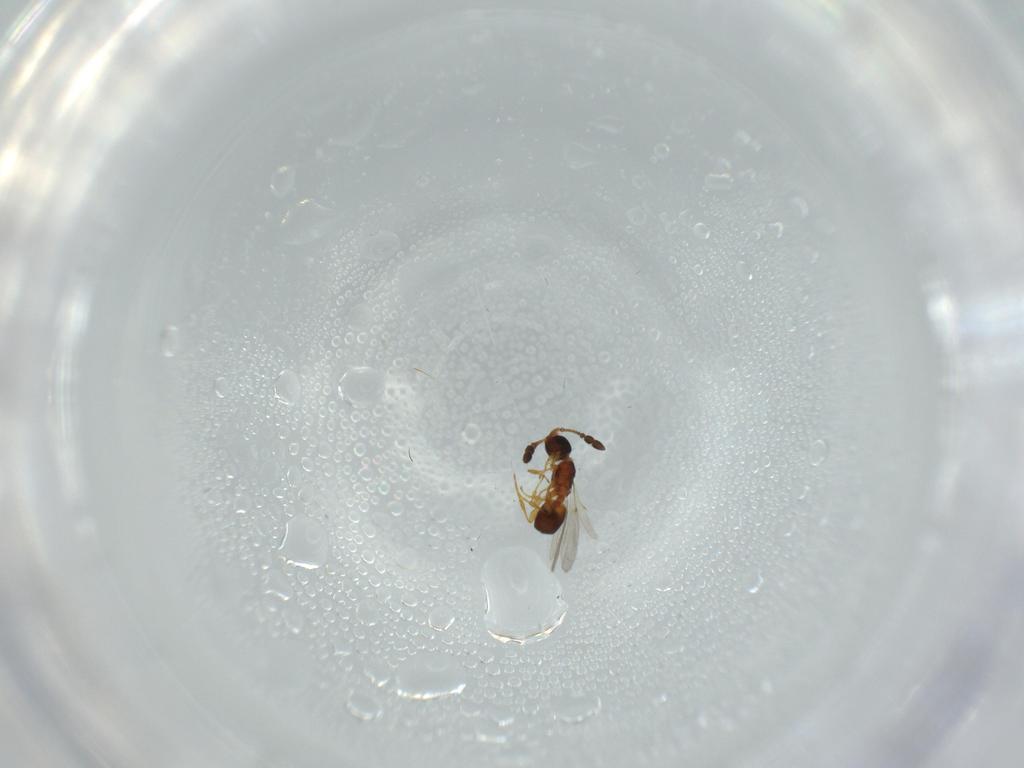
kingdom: Animalia
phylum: Arthropoda
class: Insecta
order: Hymenoptera
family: Diapriidae
